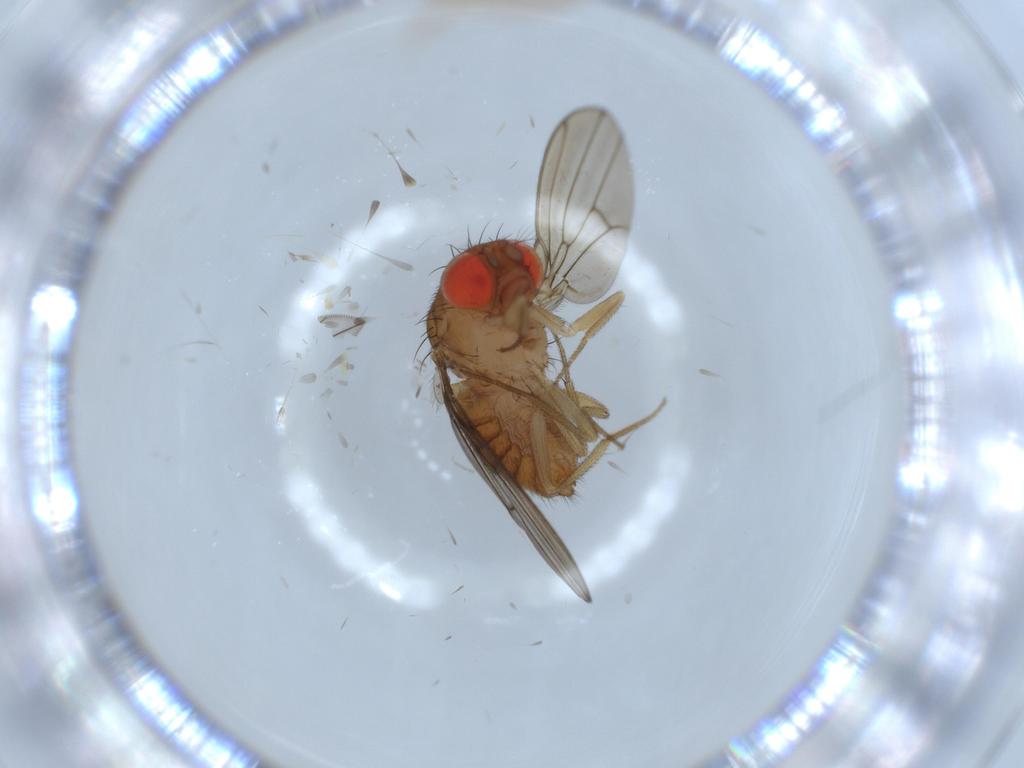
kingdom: Animalia
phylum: Arthropoda
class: Insecta
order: Diptera
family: Drosophilidae
